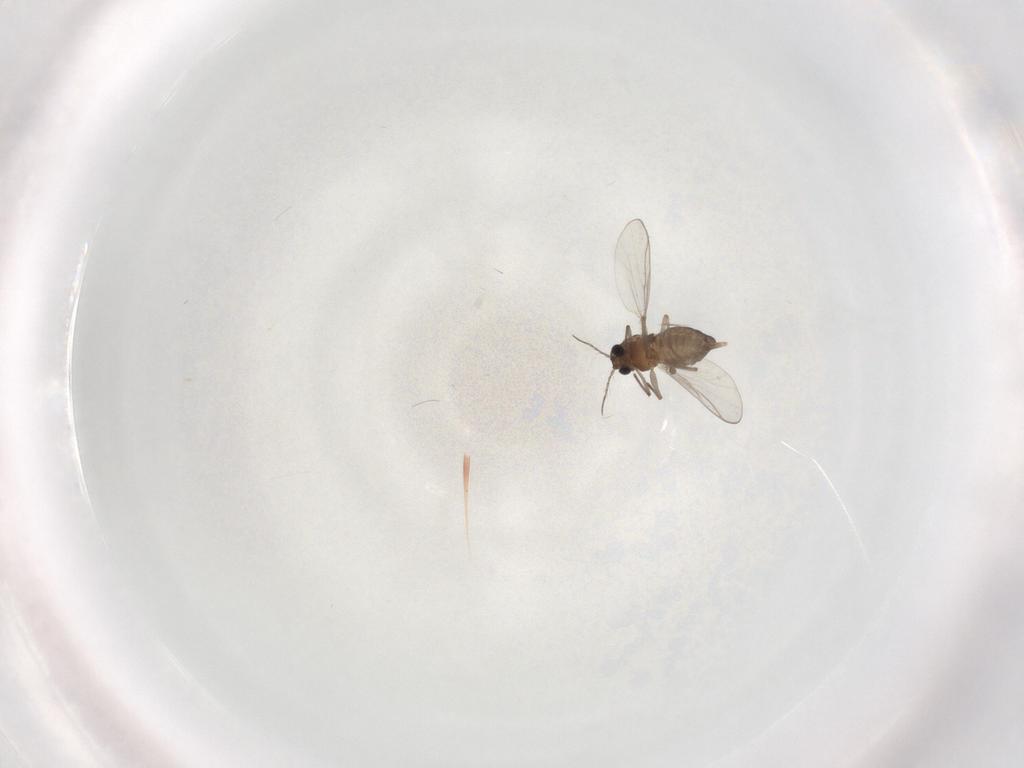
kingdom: Animalia
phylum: Arthropoda
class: Insecta
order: Diptera
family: Chironomidae
